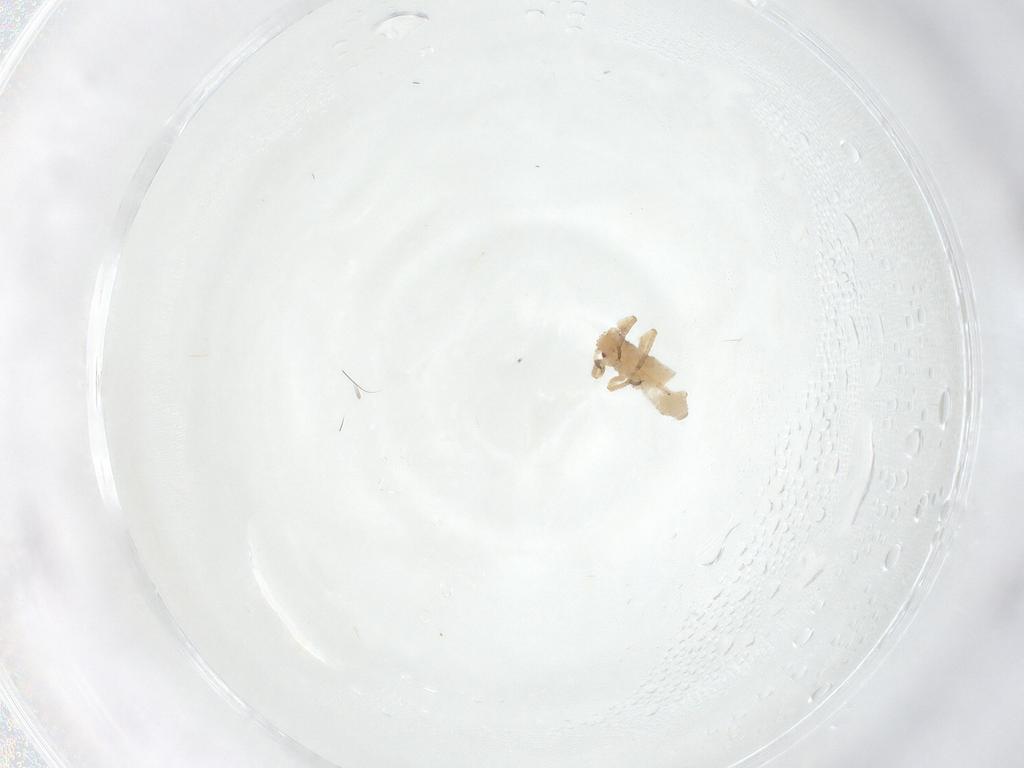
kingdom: Animalia
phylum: Arthropoda
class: Insecta
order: Hemiptera
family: Aphididae
